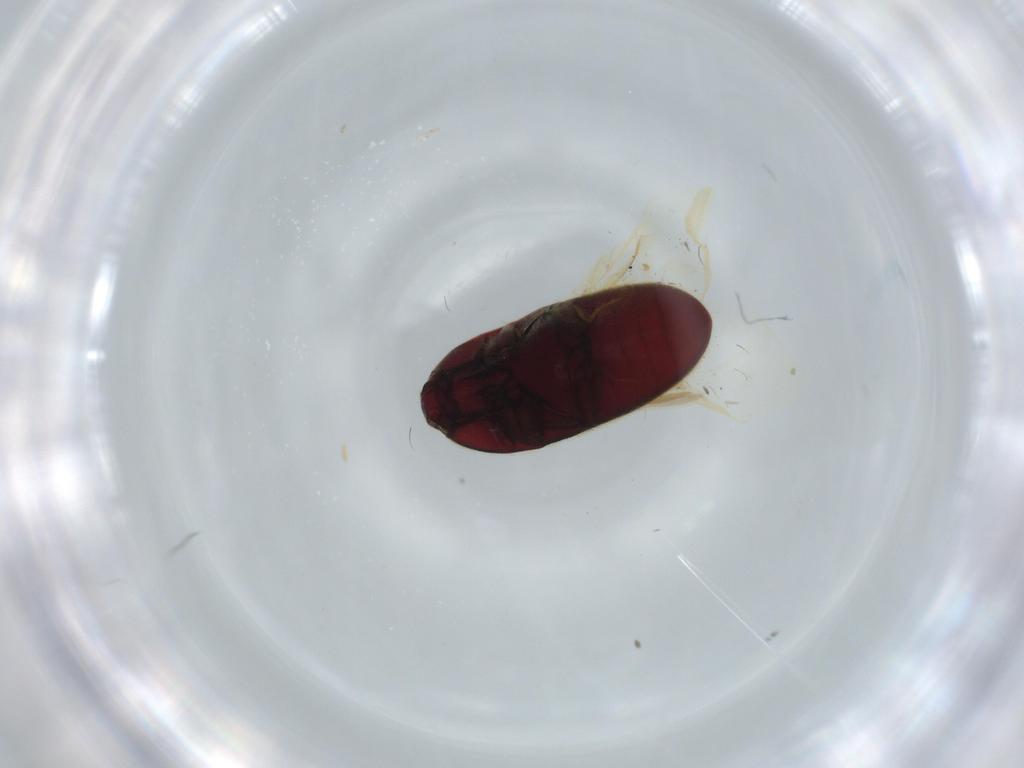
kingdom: Animalia
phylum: Arthropoda
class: Insecta
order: Coleoptera
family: Throscidae
